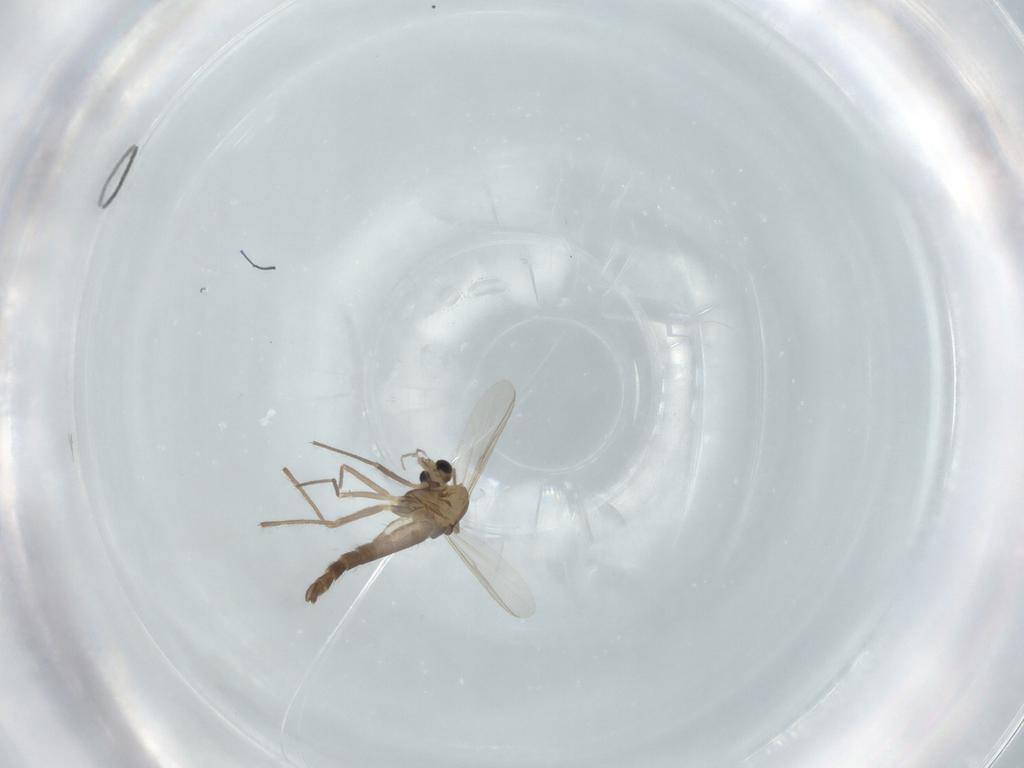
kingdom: Animalia
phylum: Arthropoda
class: Insecta
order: Diptera
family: Chironomidae
